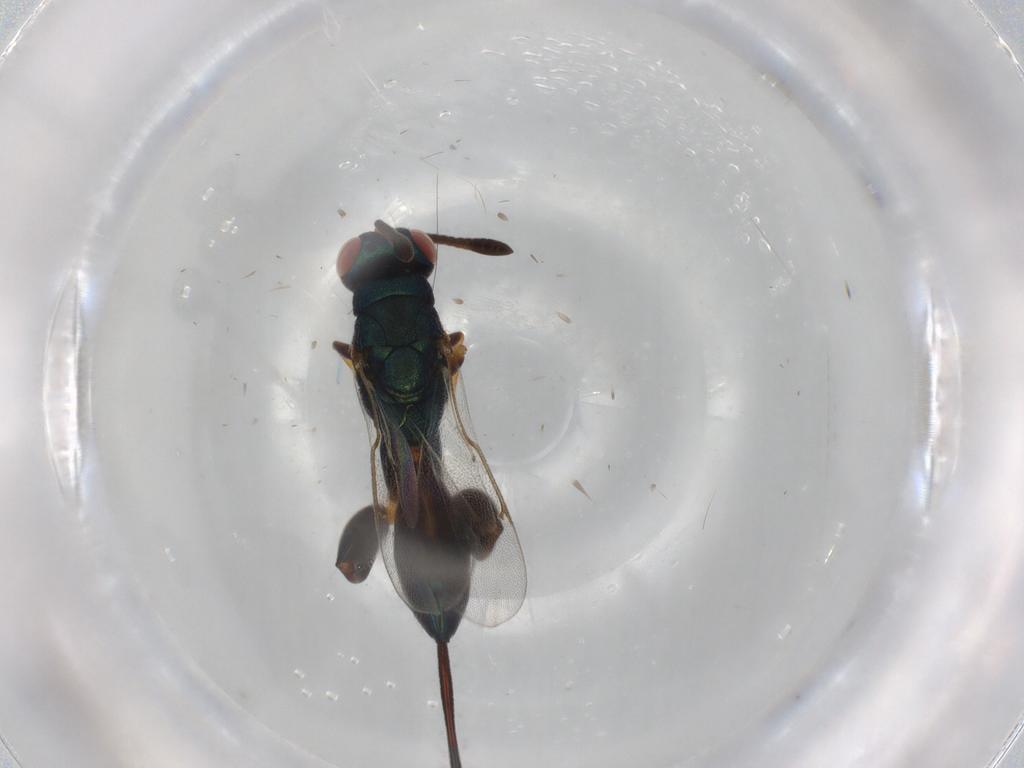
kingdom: Animalia
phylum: Arthropoda
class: Insecta
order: Hymenoptera
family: Torymidae
